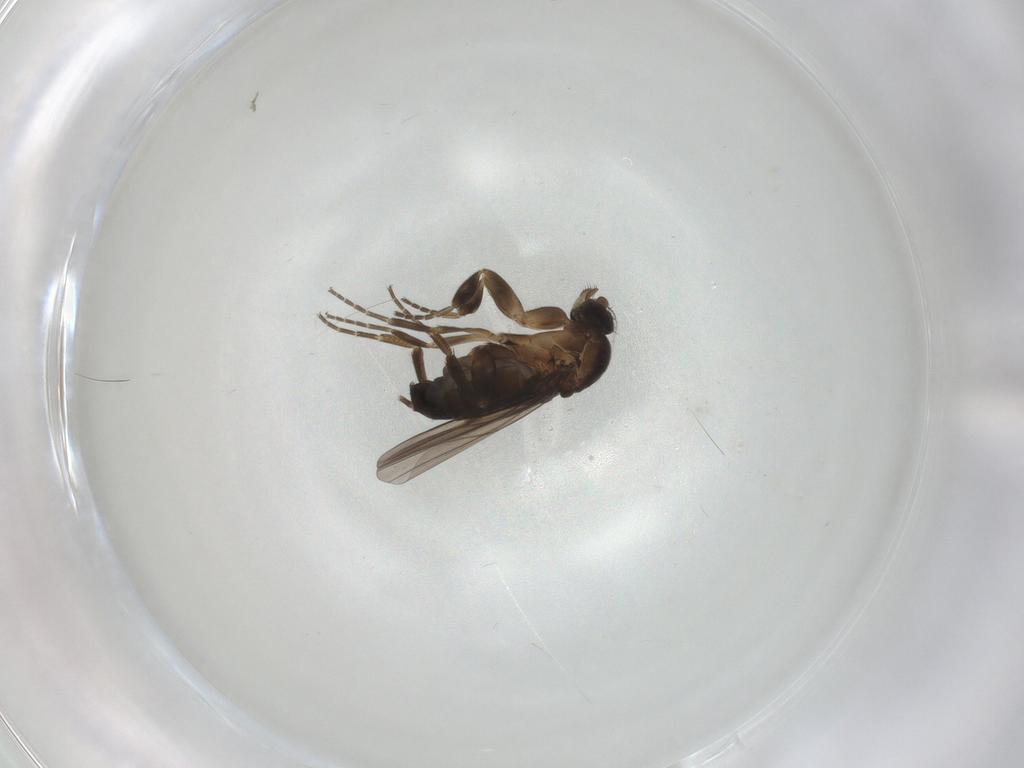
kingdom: Animalia
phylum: Arthropoda
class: Insecta
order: Diptera
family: Phoridae
